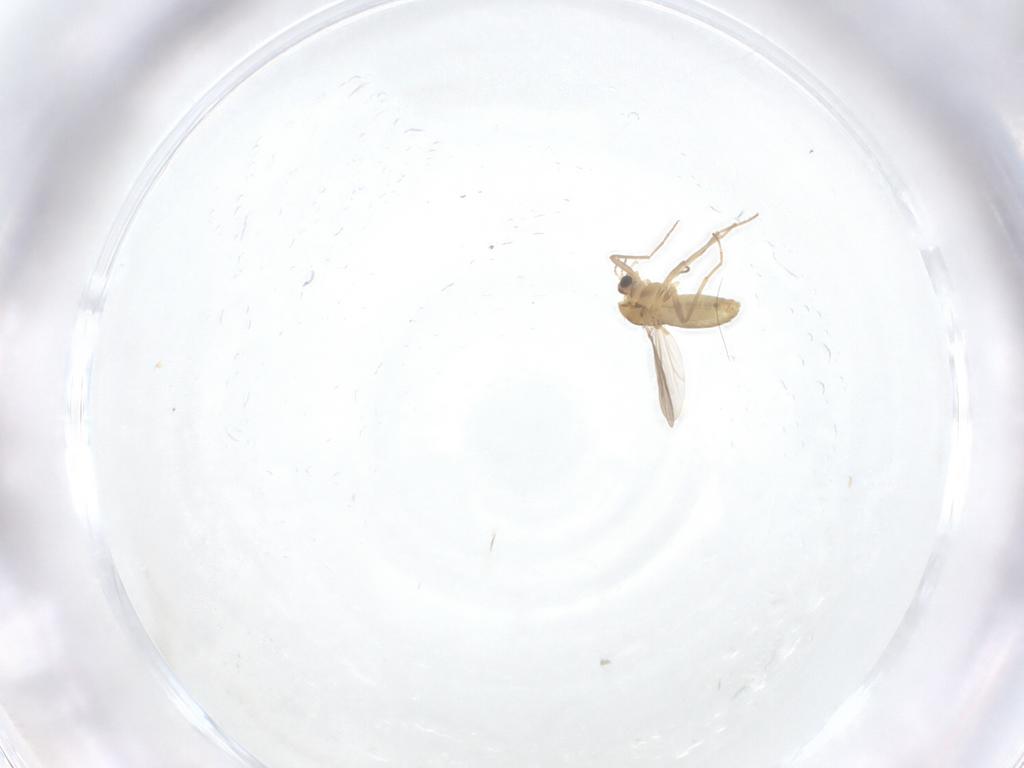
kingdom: Animalia
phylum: Arthropoda
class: Insecta
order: Diptera
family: Chironomidae
